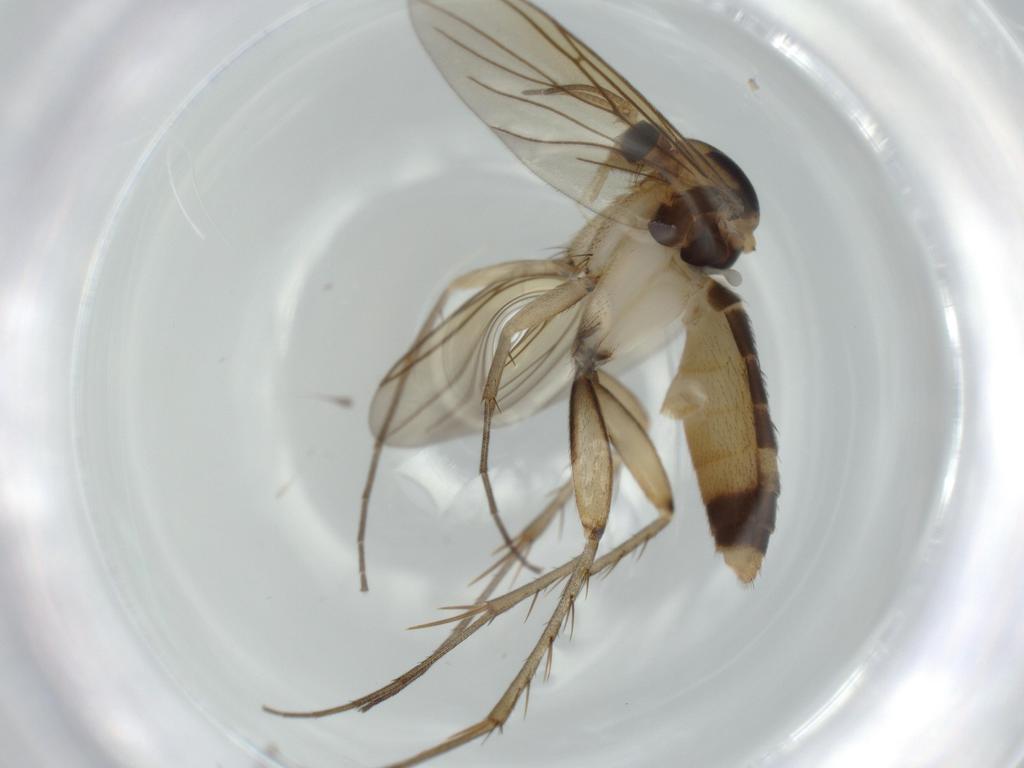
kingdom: Animalia
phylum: Arthropoda
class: Insecta
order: Diptera
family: Mycetophilidae
